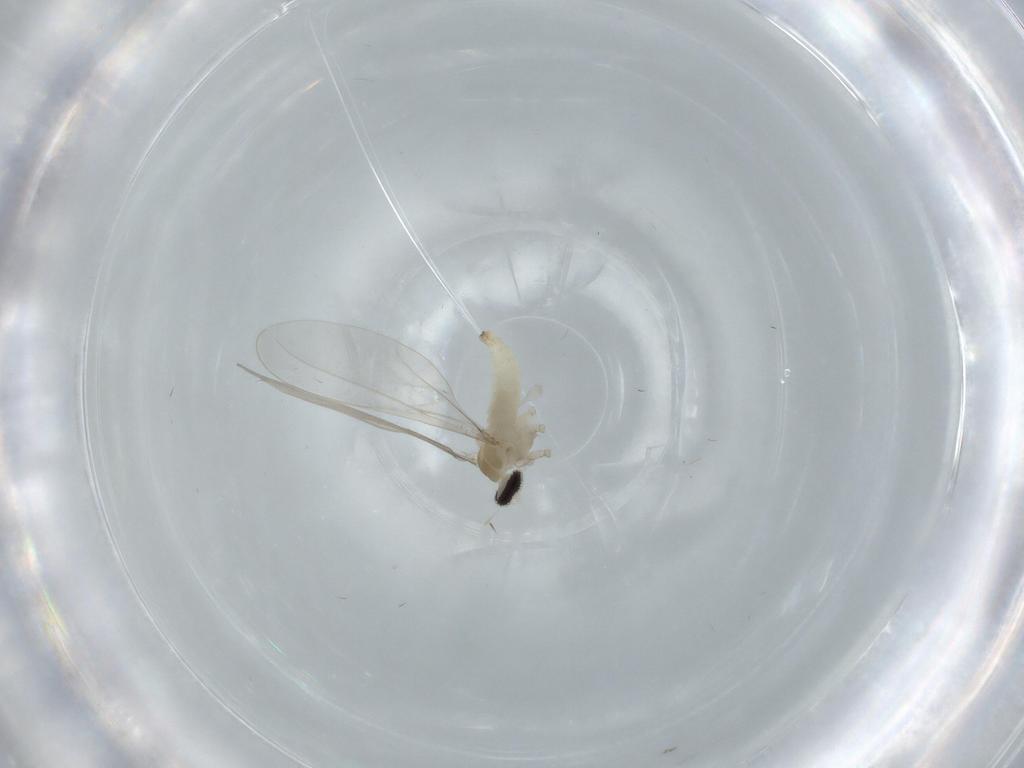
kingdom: Animalia
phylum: Arthropoda
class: Insecta
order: Diptera
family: Cecidomyiidae
